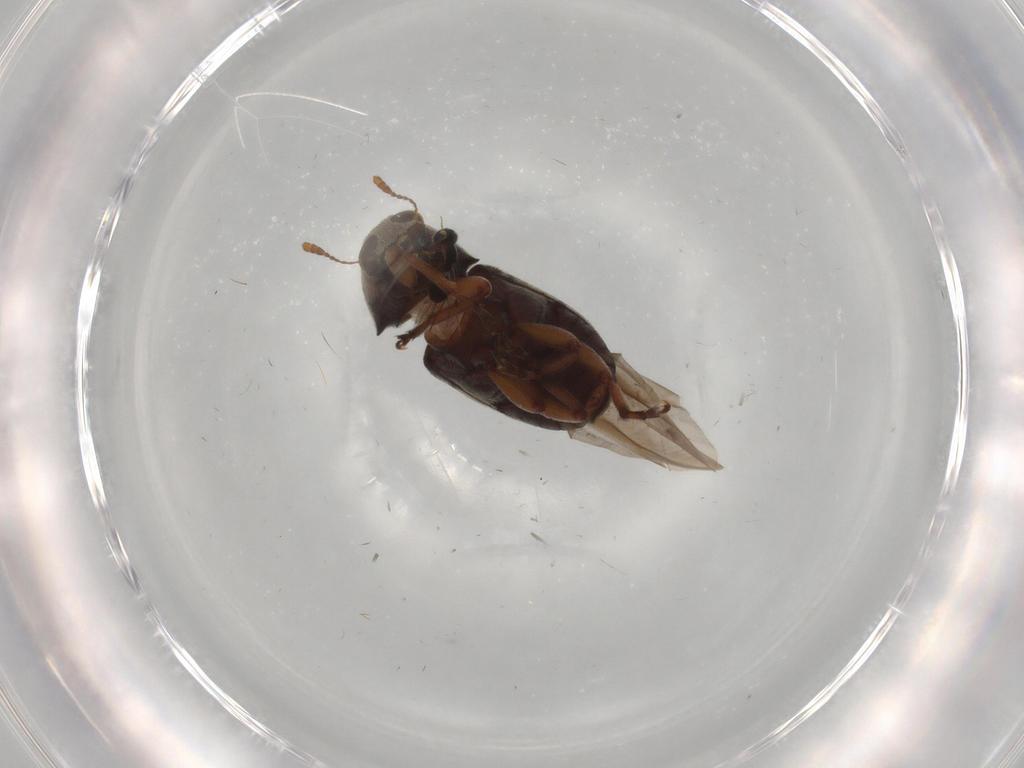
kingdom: Animalia
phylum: Arthropoda
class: Insecta
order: Coleoptera
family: Anthribidae
